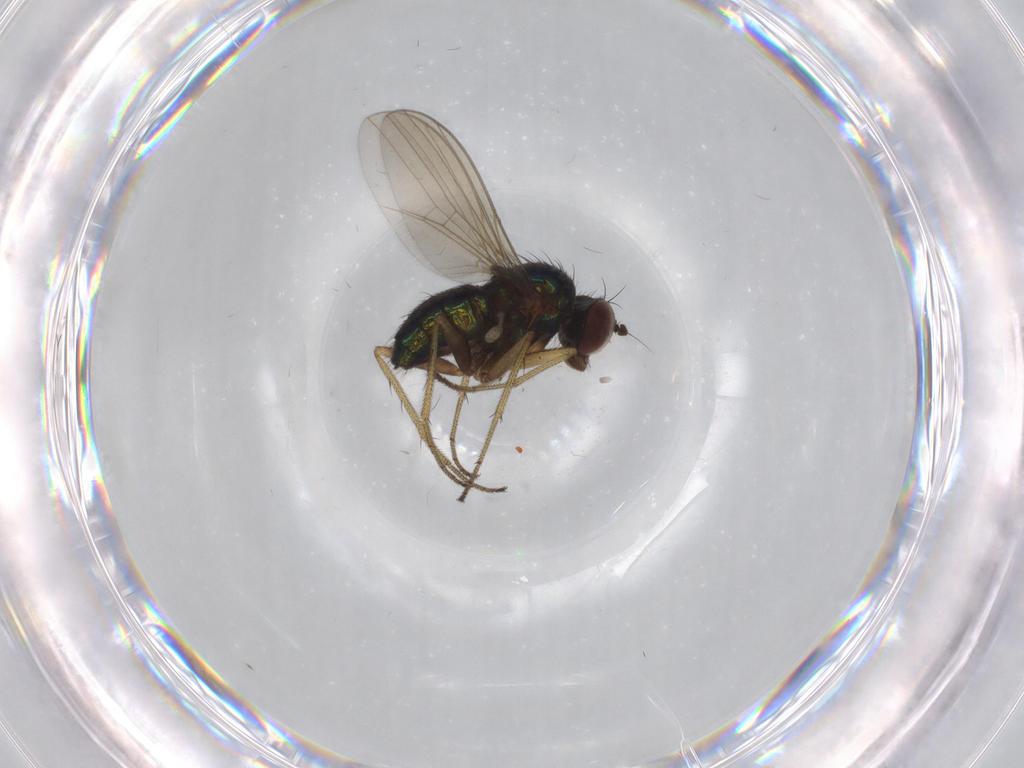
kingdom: Animalia
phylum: Arthropoda
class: Insecta
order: Diptera
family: Dolichopodidae
